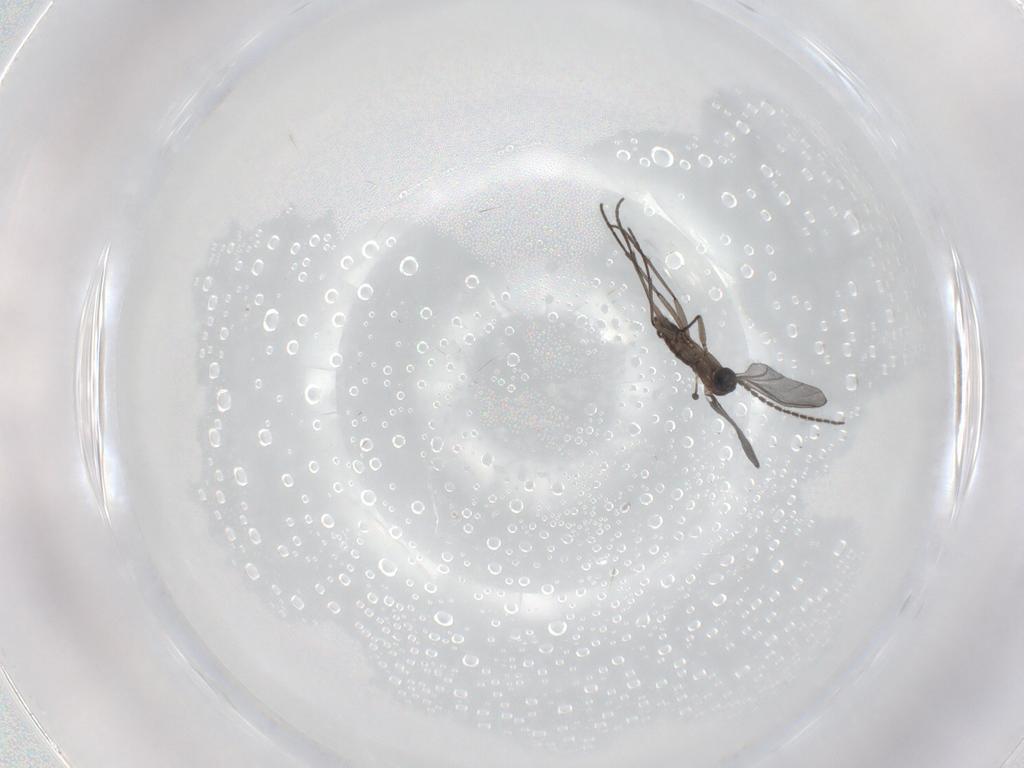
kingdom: Animalia
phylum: Arthropoda
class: Insecta
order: Diptera
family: Sciaridae
